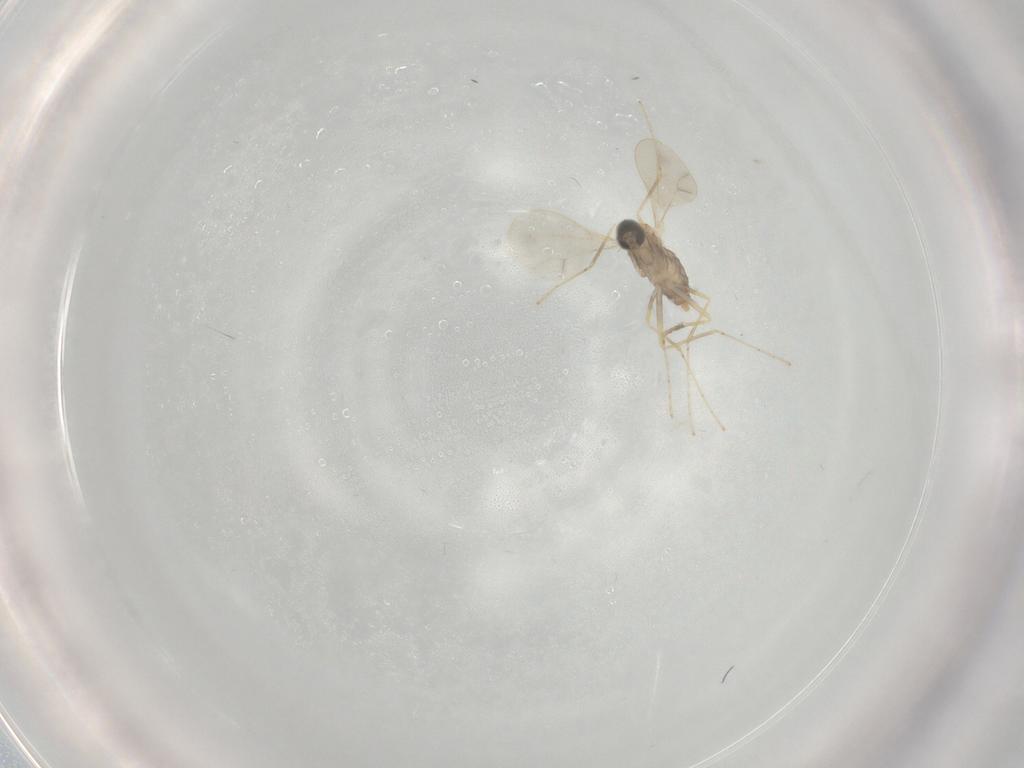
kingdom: Animalia
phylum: Arthropoda
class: Insecta
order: Diptera
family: Cecidomyiidae
